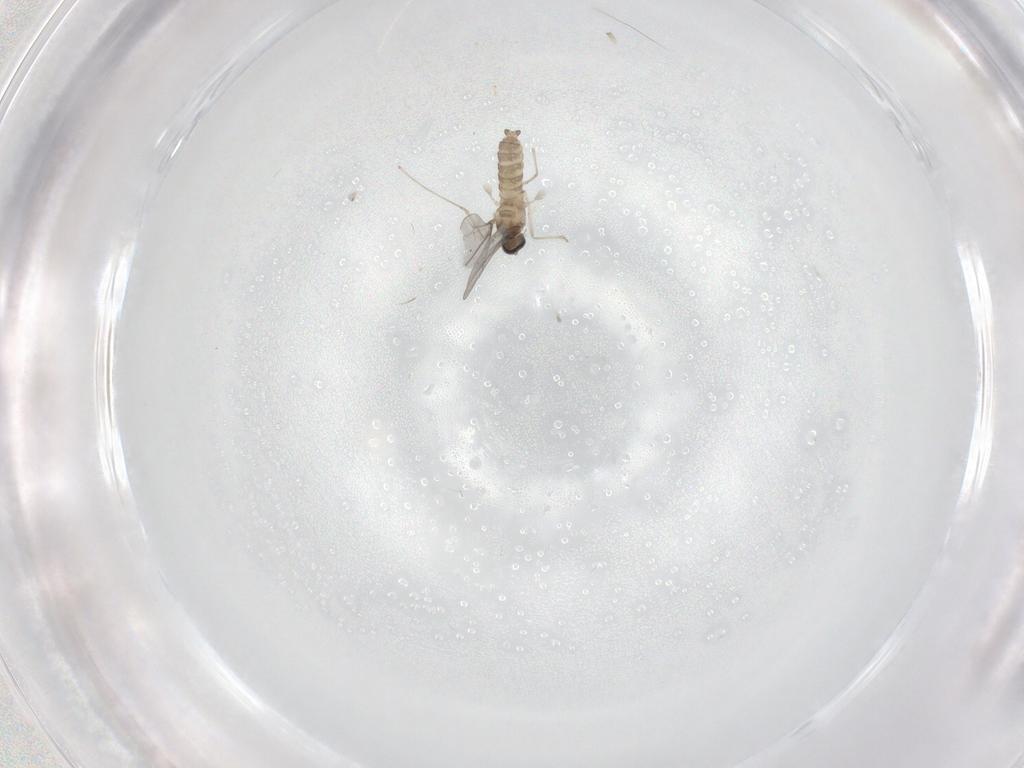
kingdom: Animalia
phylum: Arthropoda
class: Insecta
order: Diptera
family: Cecidomyiidae
